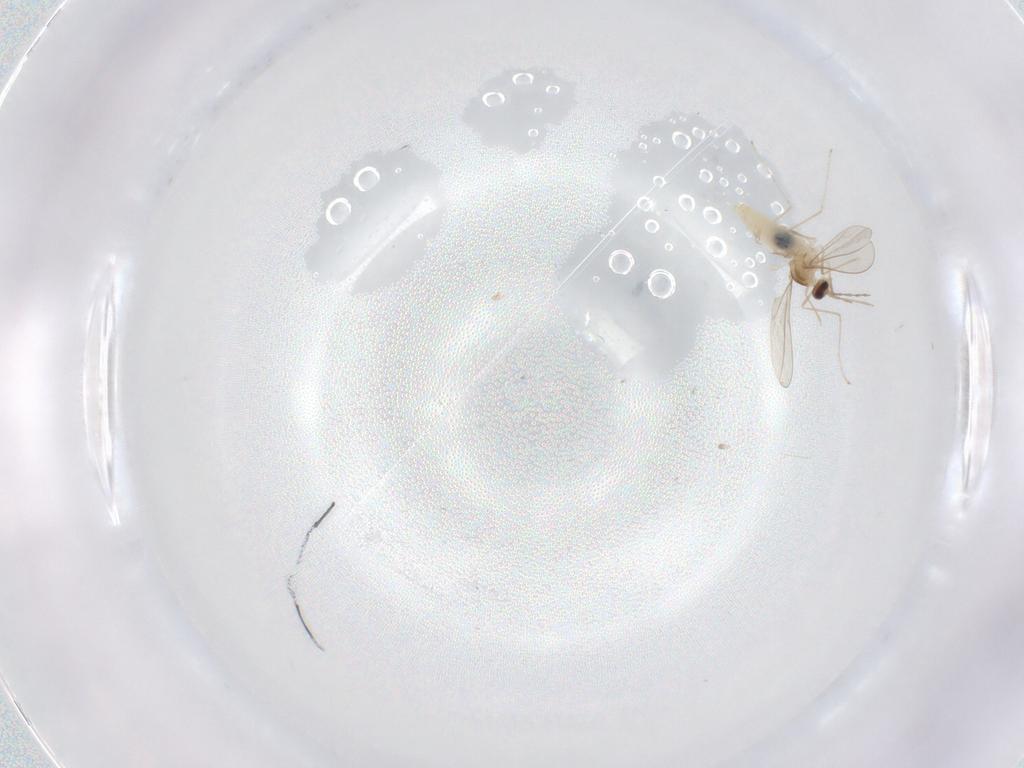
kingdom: Animalia
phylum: Arthropoda
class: Insecta
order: Diptera
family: Cecidomyiidae
